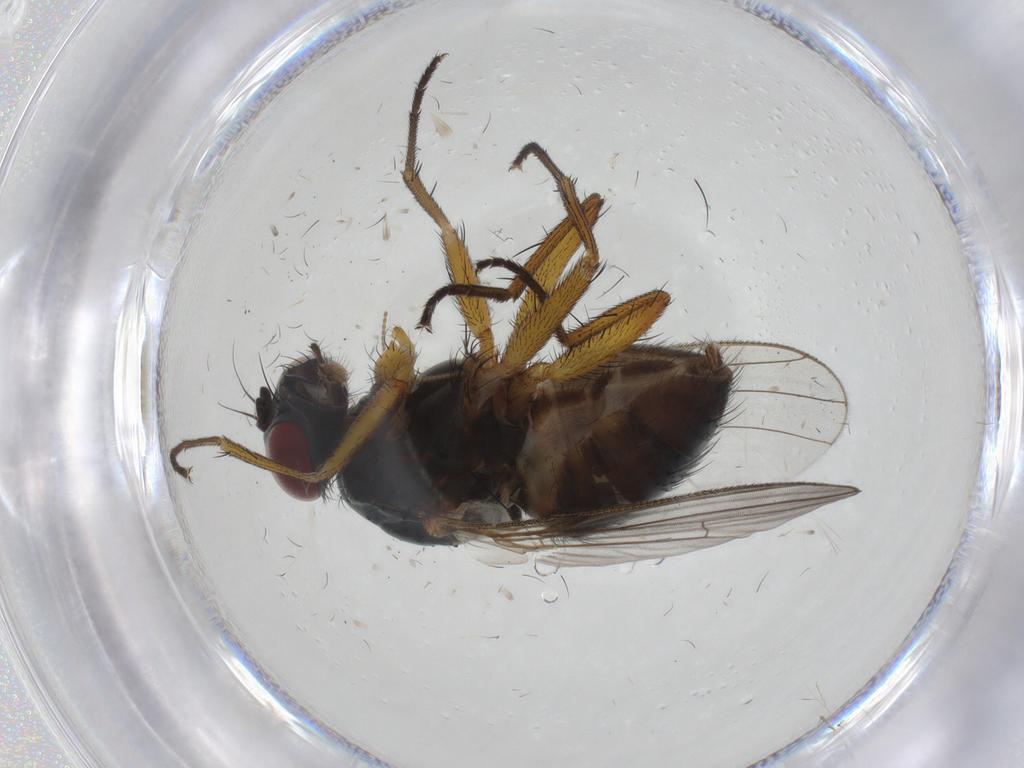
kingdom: Animalia
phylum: Arthropoda
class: Insecta
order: Diptera
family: Muscidae
